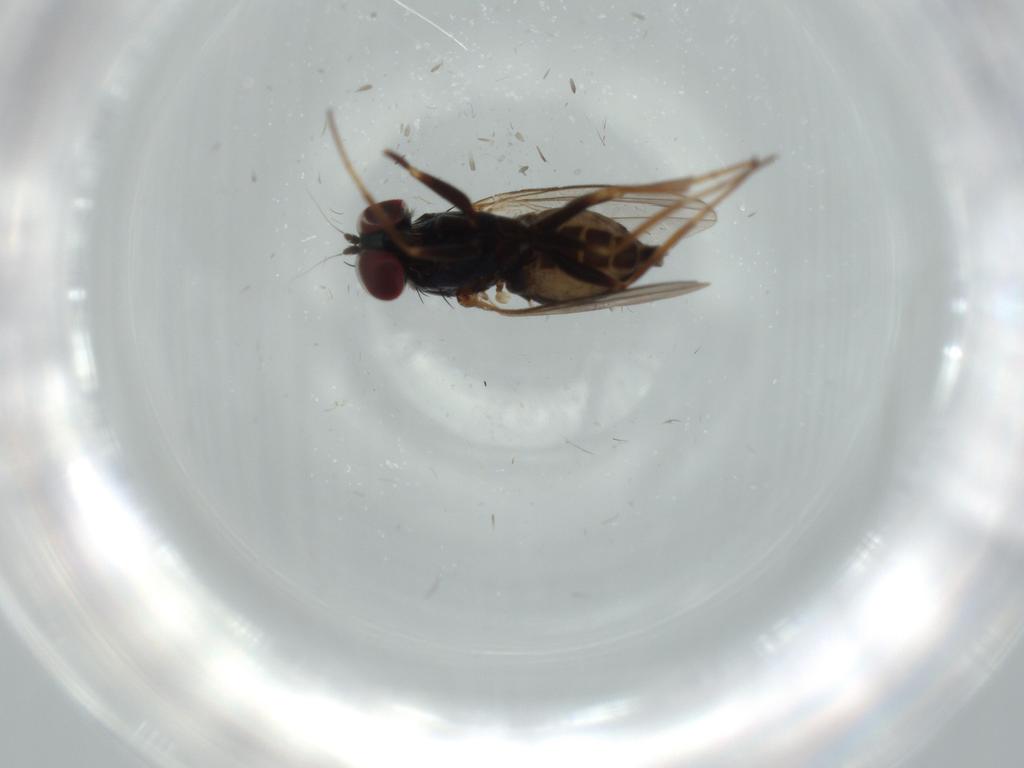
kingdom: Animalia
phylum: Arthropoda
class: Insecta
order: Diptera
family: Dolichopodidae
